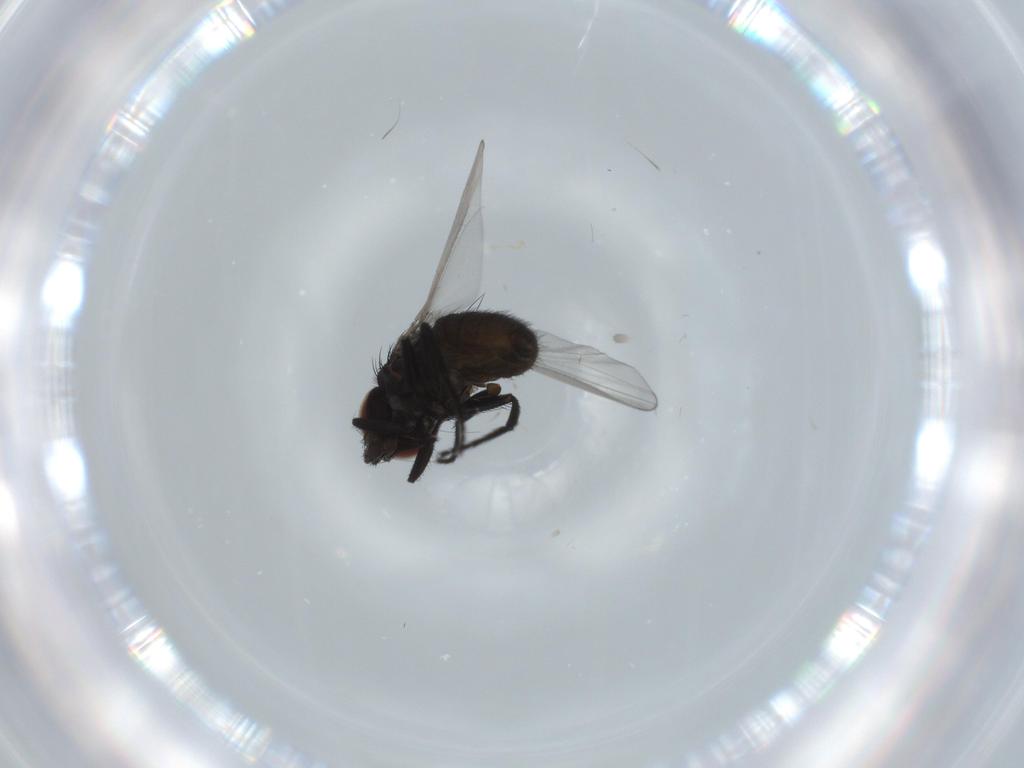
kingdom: Animalia
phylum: Arthropoda
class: Insecta
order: Diptera
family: Milichiidae
